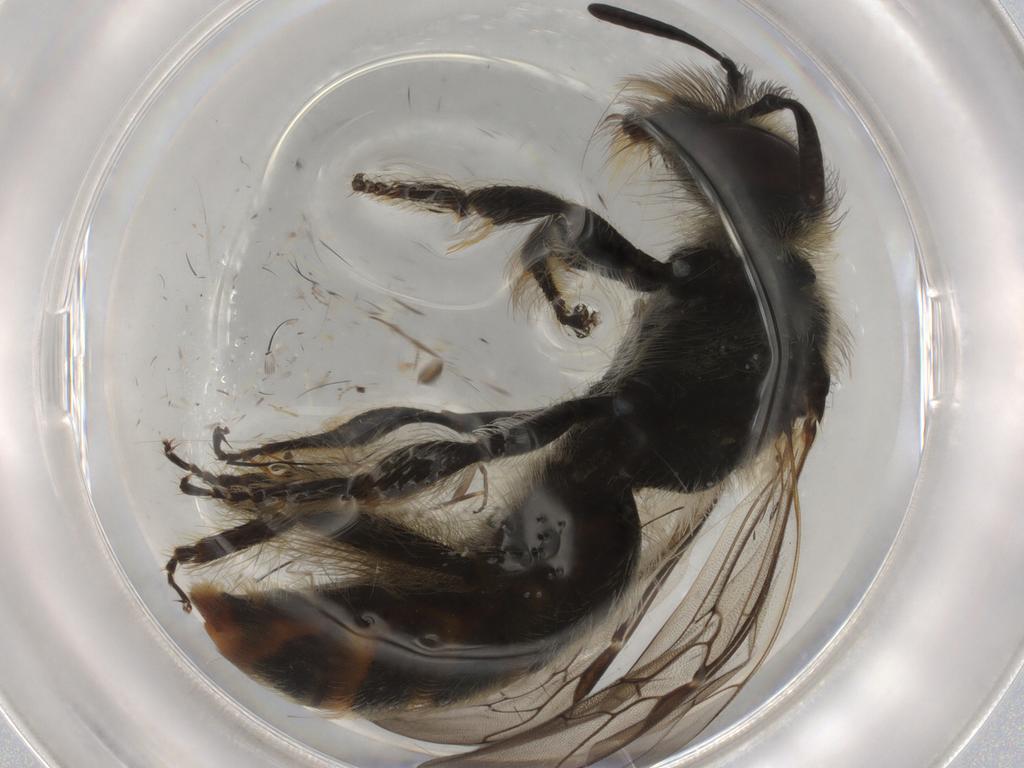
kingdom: Animalia
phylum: Arthropoda
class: Insecta
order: Hymenoptera
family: Halictidae
